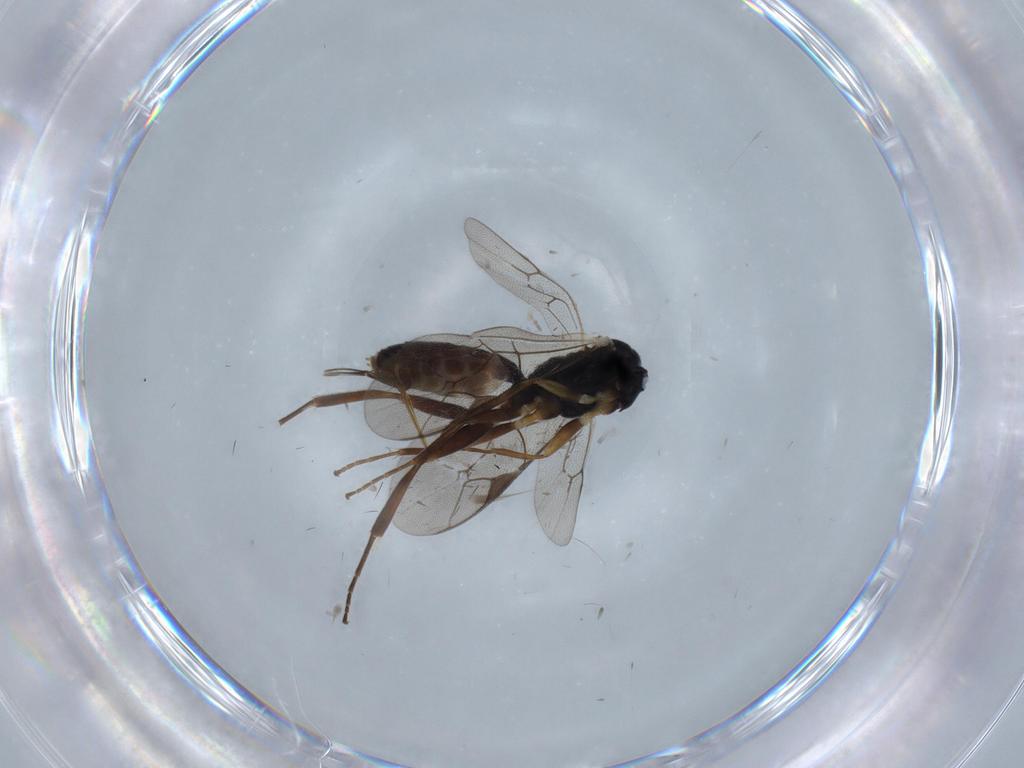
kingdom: Animalia
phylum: Arthropoda
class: Insecta
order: Hymenoptera
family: Ichneumonidae
